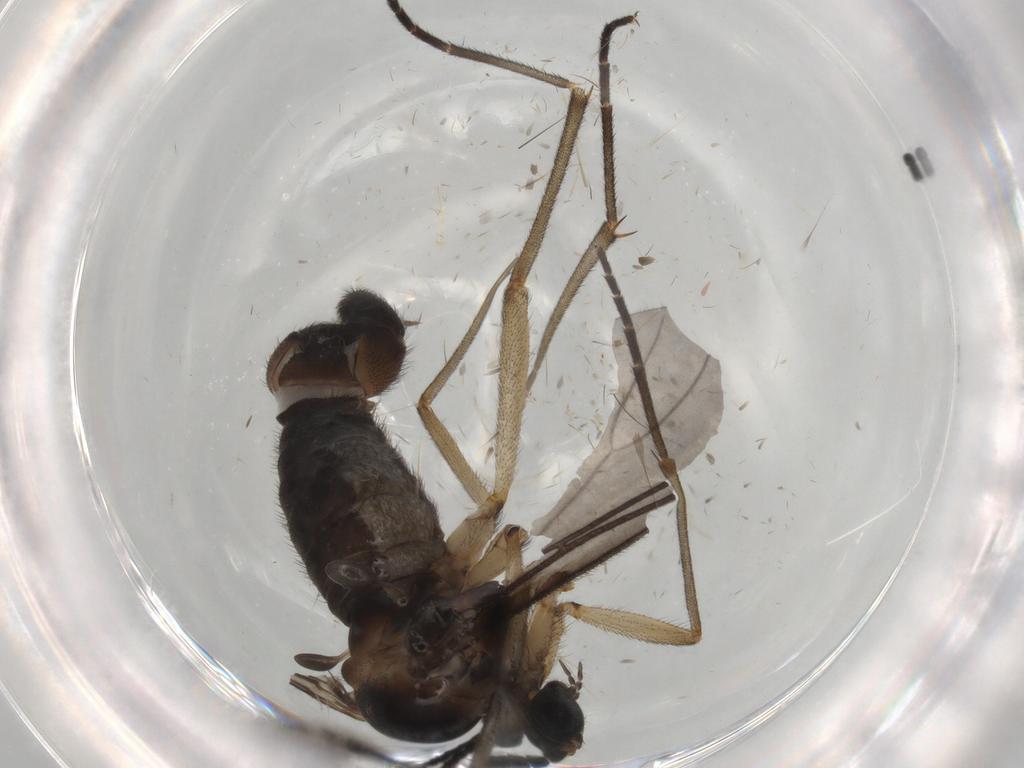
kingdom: Animalia
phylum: Arthropoda
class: Insecta
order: Diptera
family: Sciaridae
